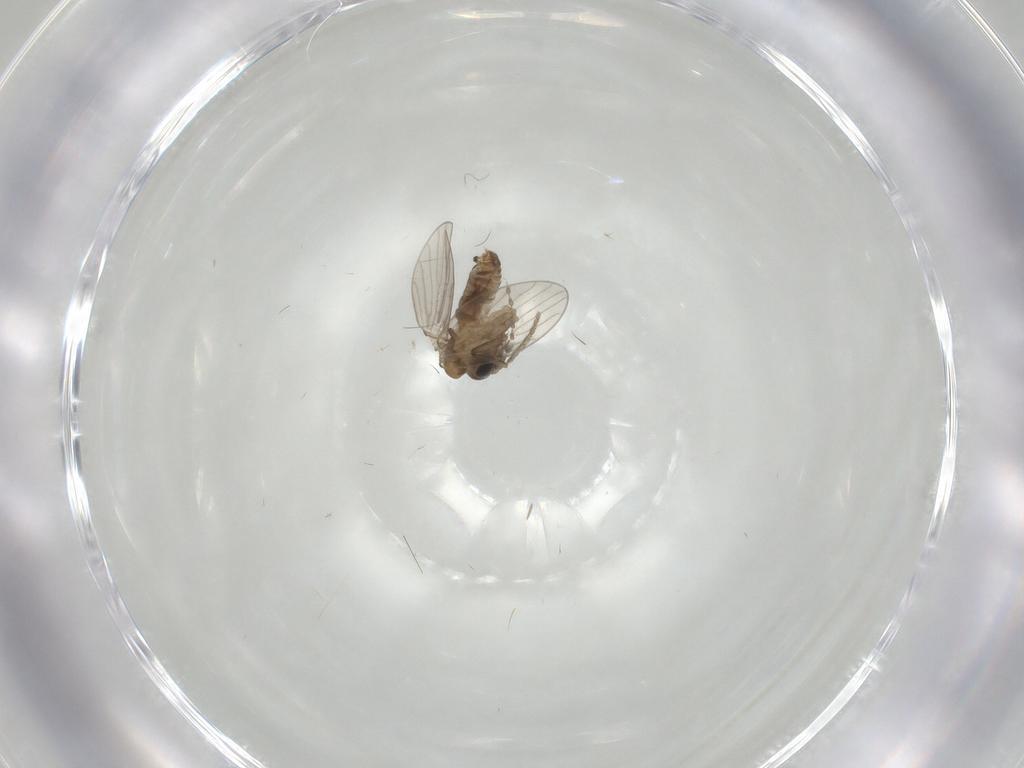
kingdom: Animalia
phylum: Arthropoda
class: Insecta
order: Diptera
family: Psychodidae
